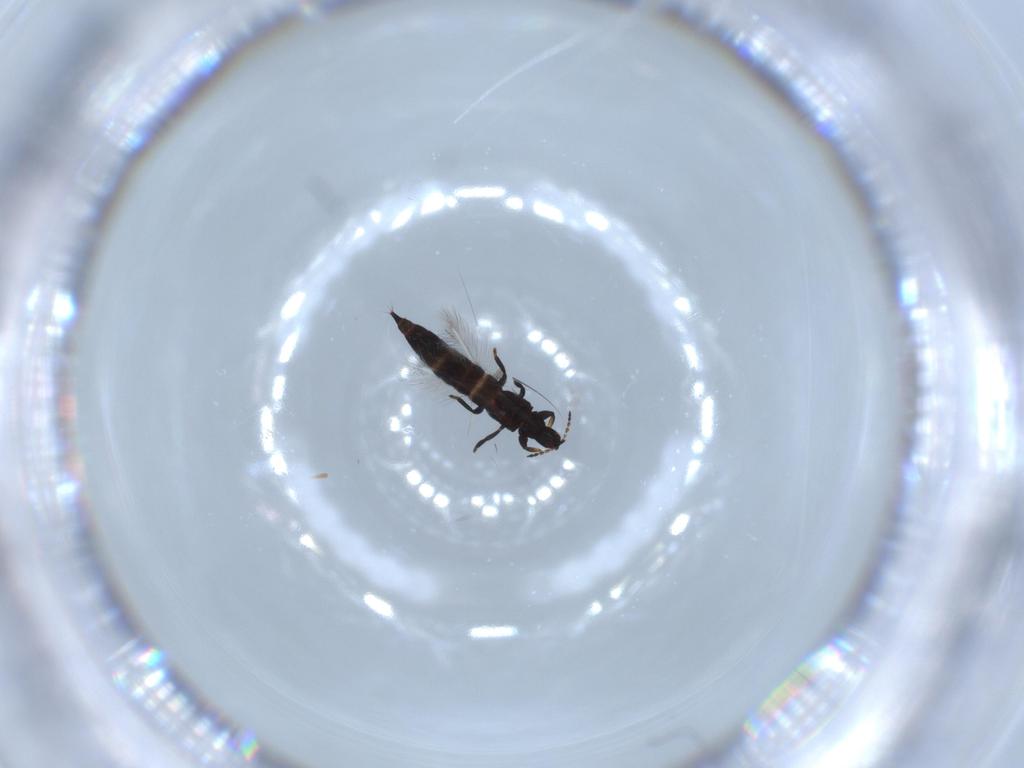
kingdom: Animalia
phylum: Arthropoda
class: Insecta
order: Thysanoptera
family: Phlaeothripidae
